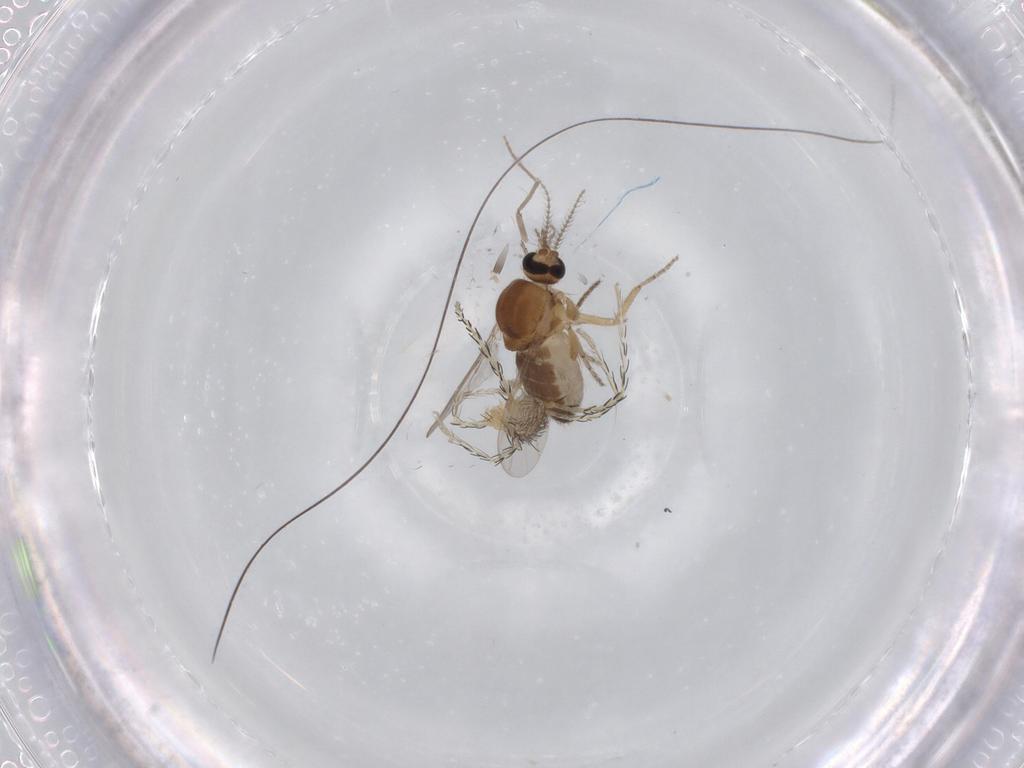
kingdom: Animalia
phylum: Arthropoda
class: Insecta
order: Diptera
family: Ceratopogonidae
